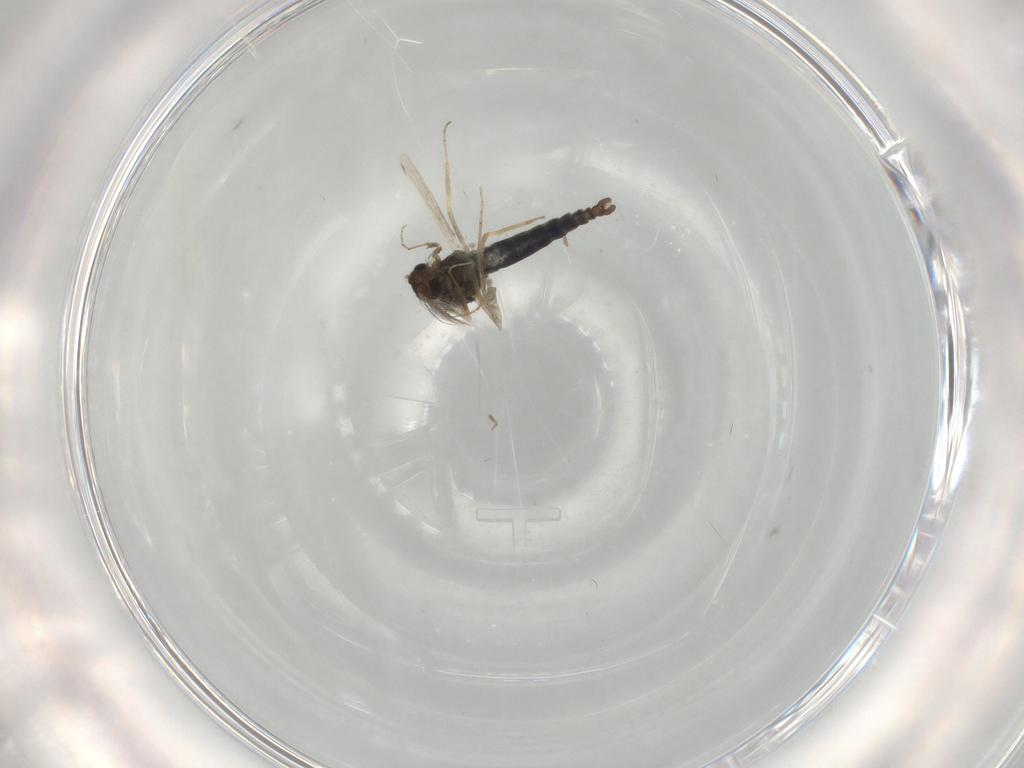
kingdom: Animalia
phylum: Arthropoda
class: Insecta
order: Diptera
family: Ceratopogonidae
